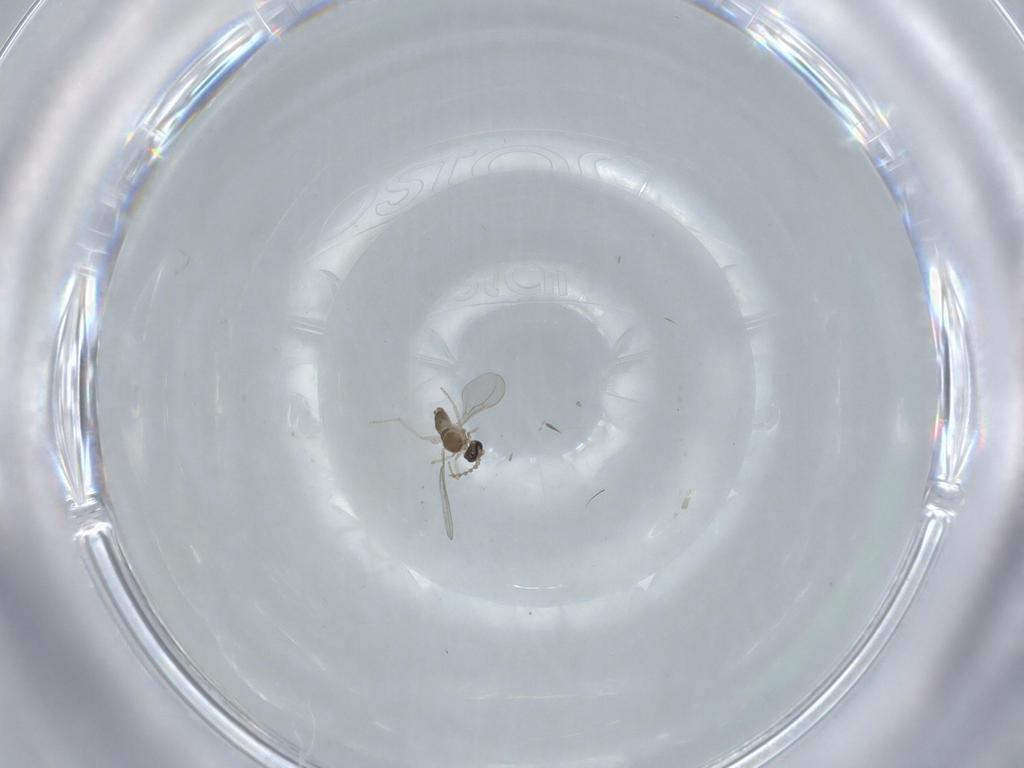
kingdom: Animalia
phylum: Arthropoda
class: Insecta
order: Diptera
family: Cecidomyiidae
